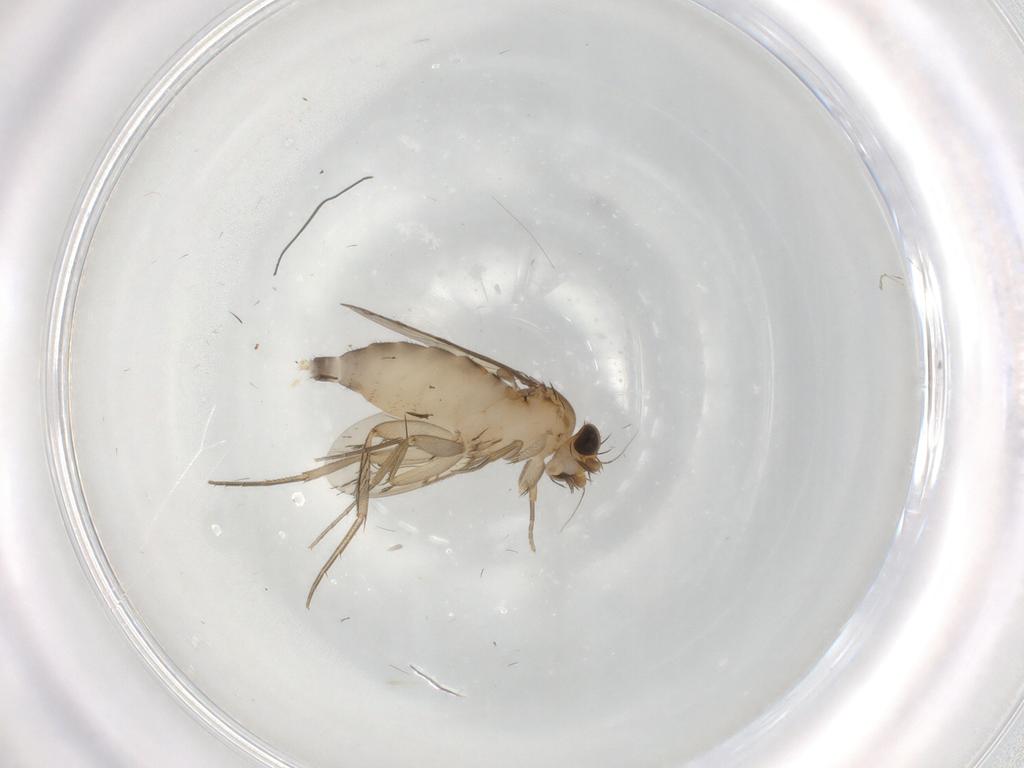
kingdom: Animalia
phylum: Arthropoda
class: Insecta
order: Diptera
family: Phoridae
